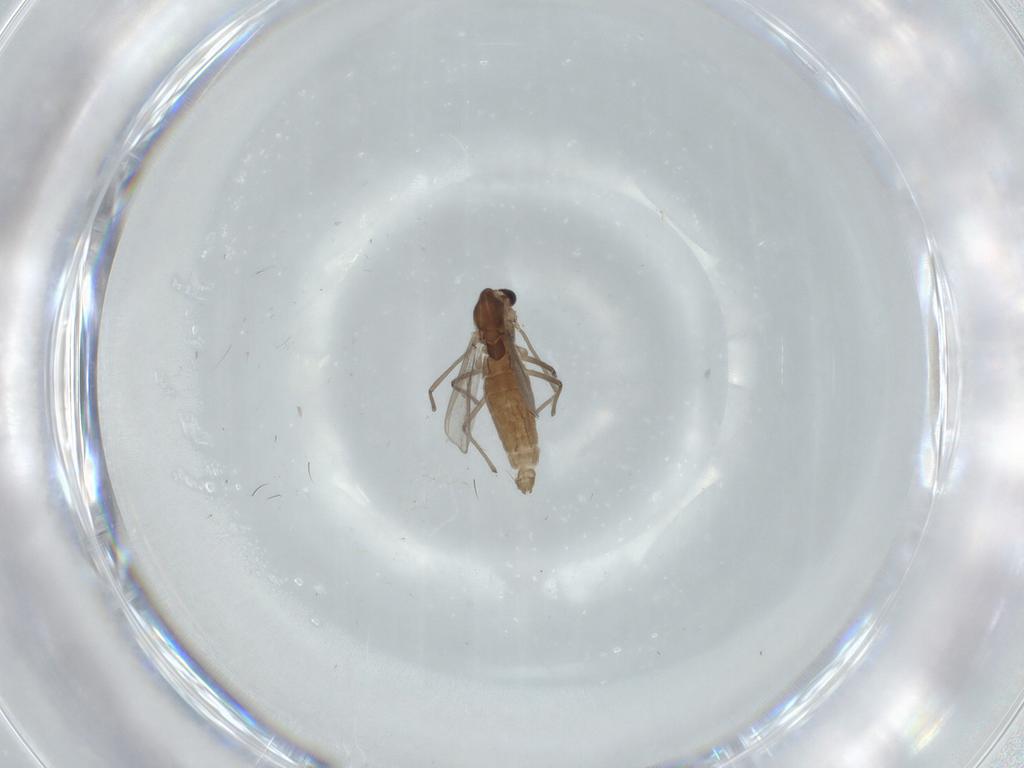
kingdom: Animalia
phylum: Arthropoda
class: Insecta
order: Diptera
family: Chironomidae
